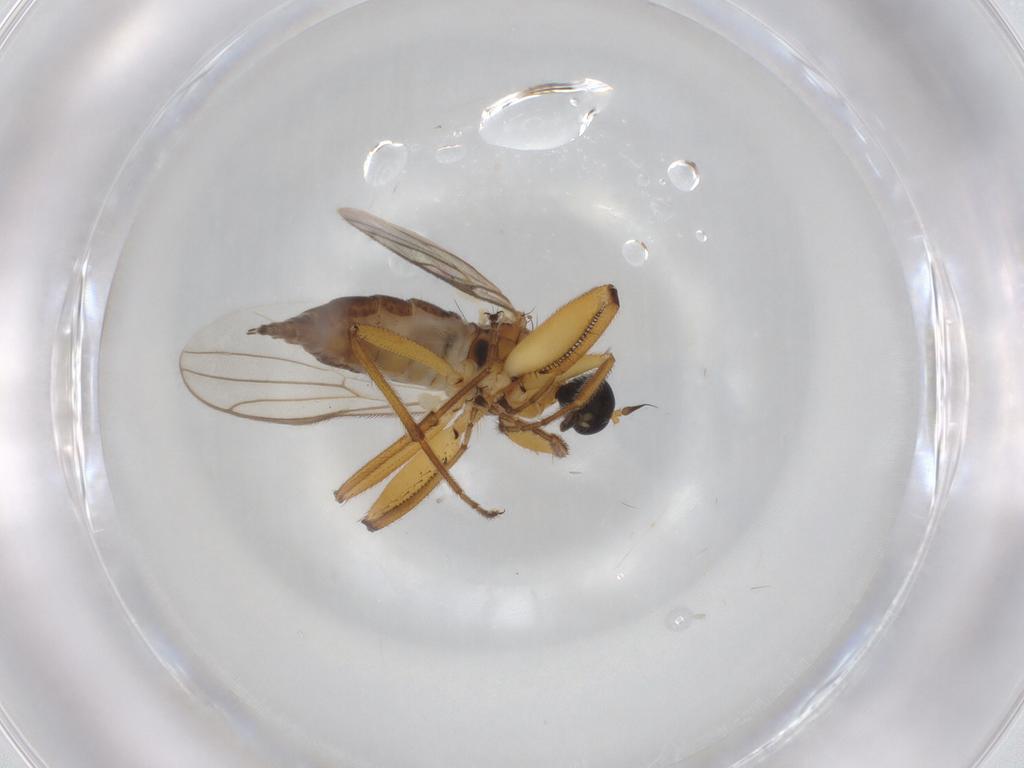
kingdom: Animalia
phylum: Arthropoda
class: Insecta
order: Diptera
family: Hybotidae
